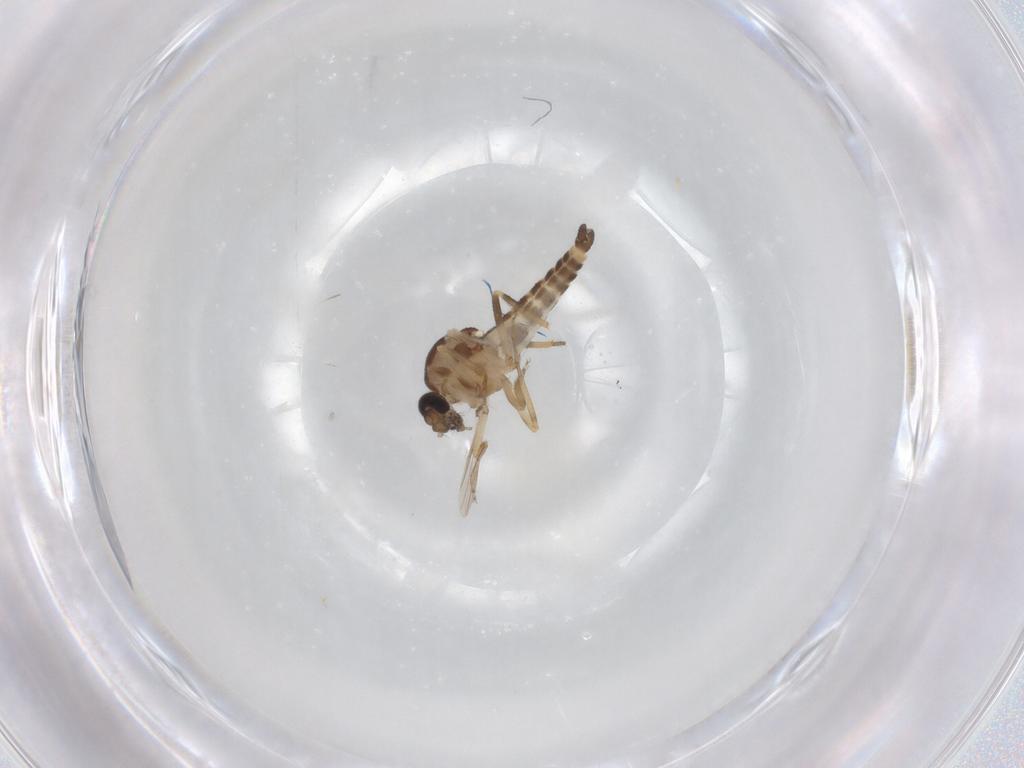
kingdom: Animalia
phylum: Arthropoda
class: Insecta
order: Diptera
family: Ceratopogonidae
